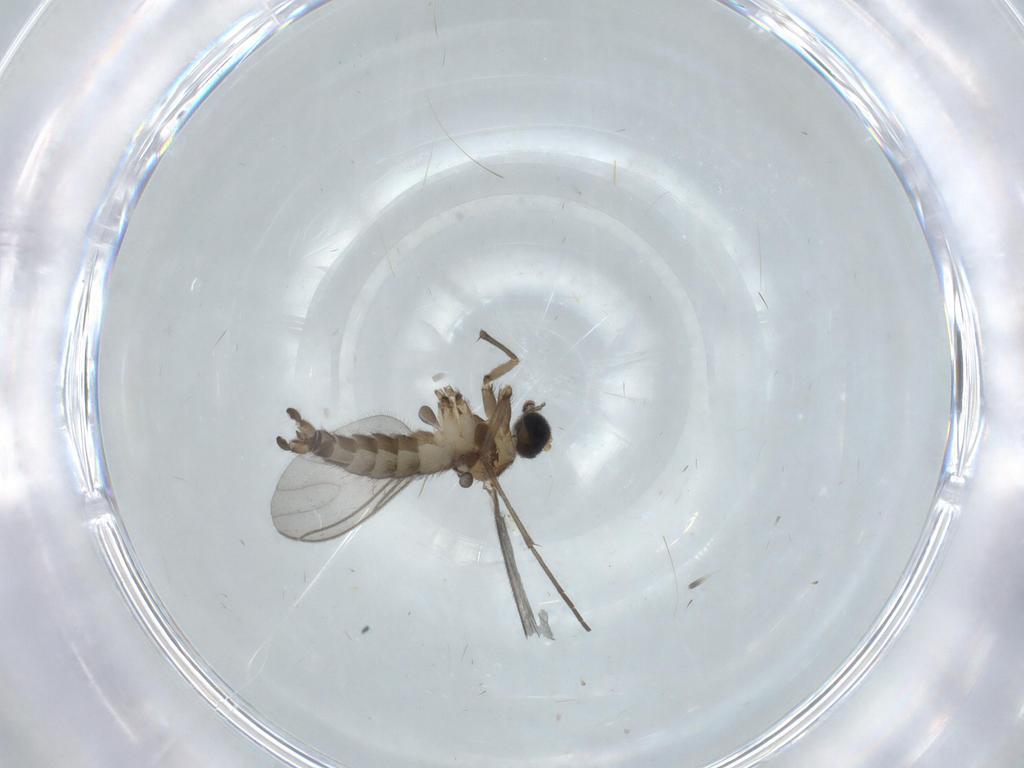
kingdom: Animalia
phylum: Arthropoda
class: Insecta
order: Diptera
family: Sciaridae
